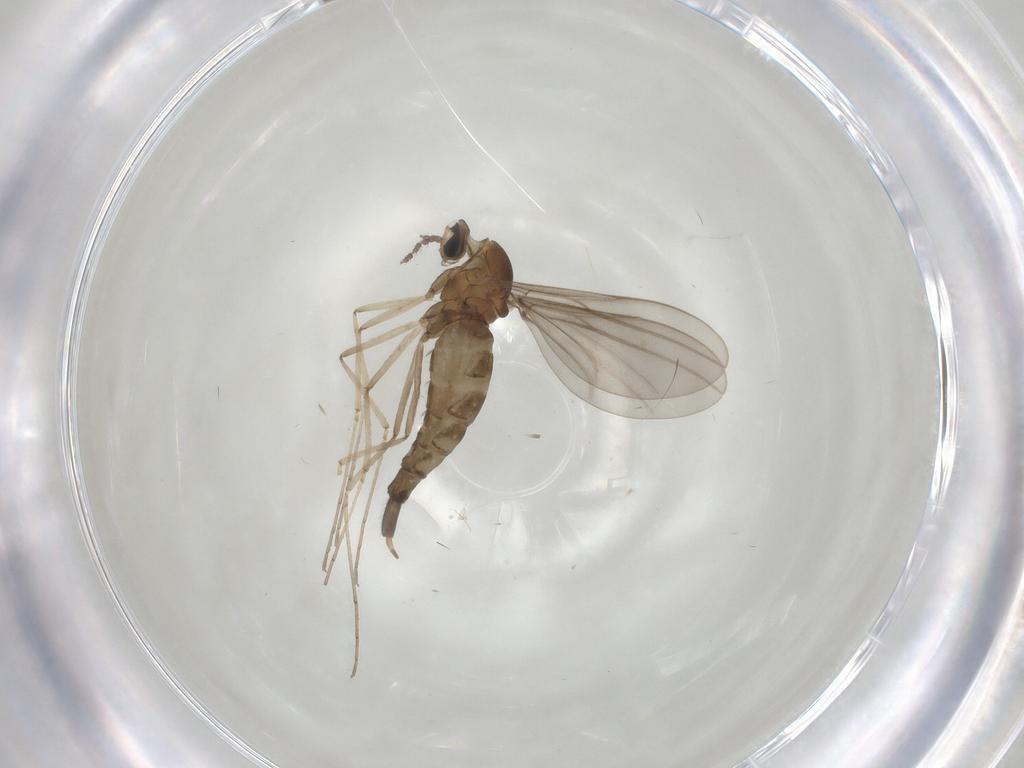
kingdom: Animalia
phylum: Arthropoda
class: Insecta
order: Diptera
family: Cecidomyiidae
